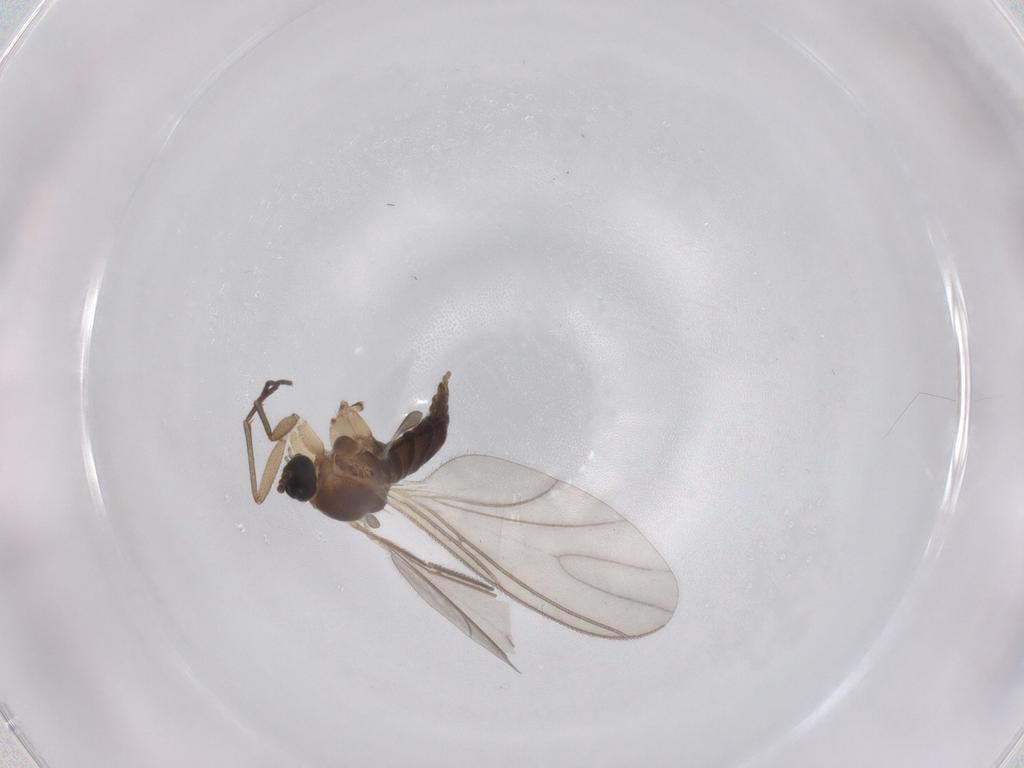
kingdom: Animalia
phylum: Arthropoda
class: Insecta
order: Diptera
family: Sciaridae
